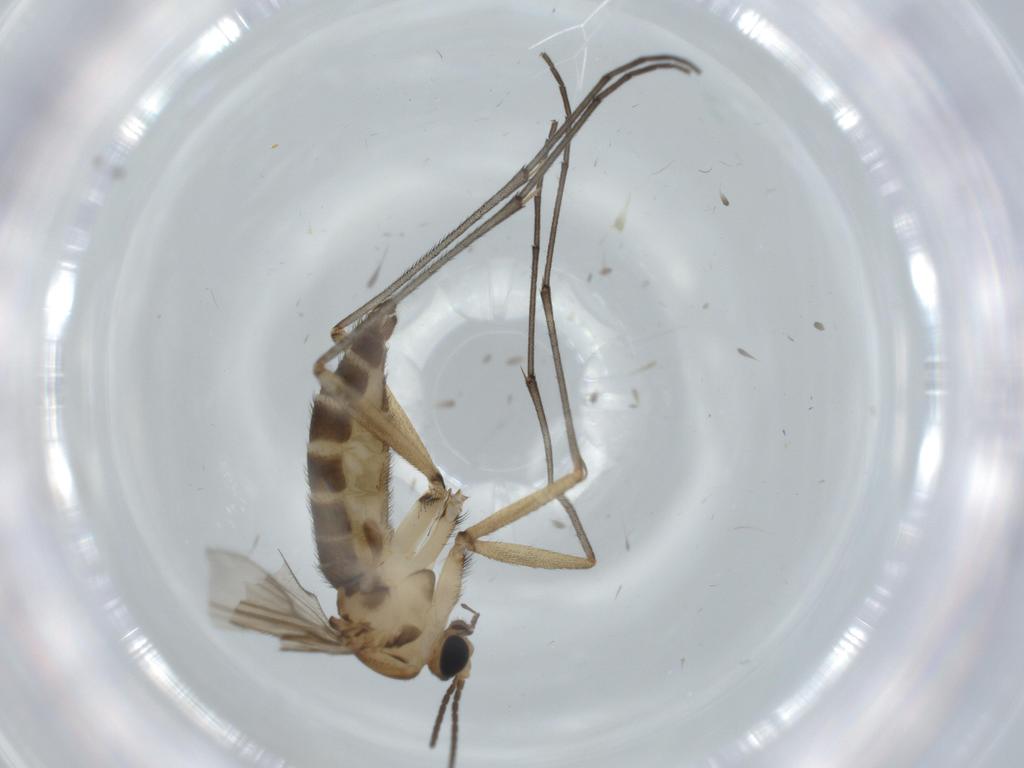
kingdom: Animalia
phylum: Arthropoda
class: Insecta
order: Diptera
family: Sciaridae
